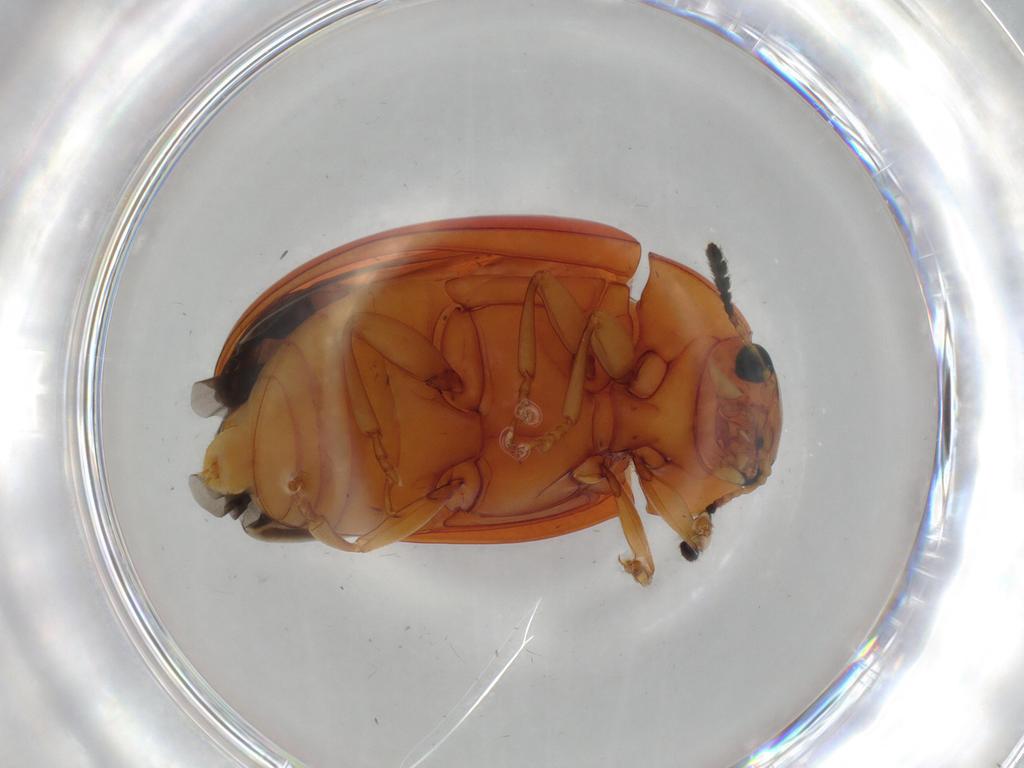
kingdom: Animalia
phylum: Arthropoda
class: Insecta
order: Coleoptera
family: Erotylidae
